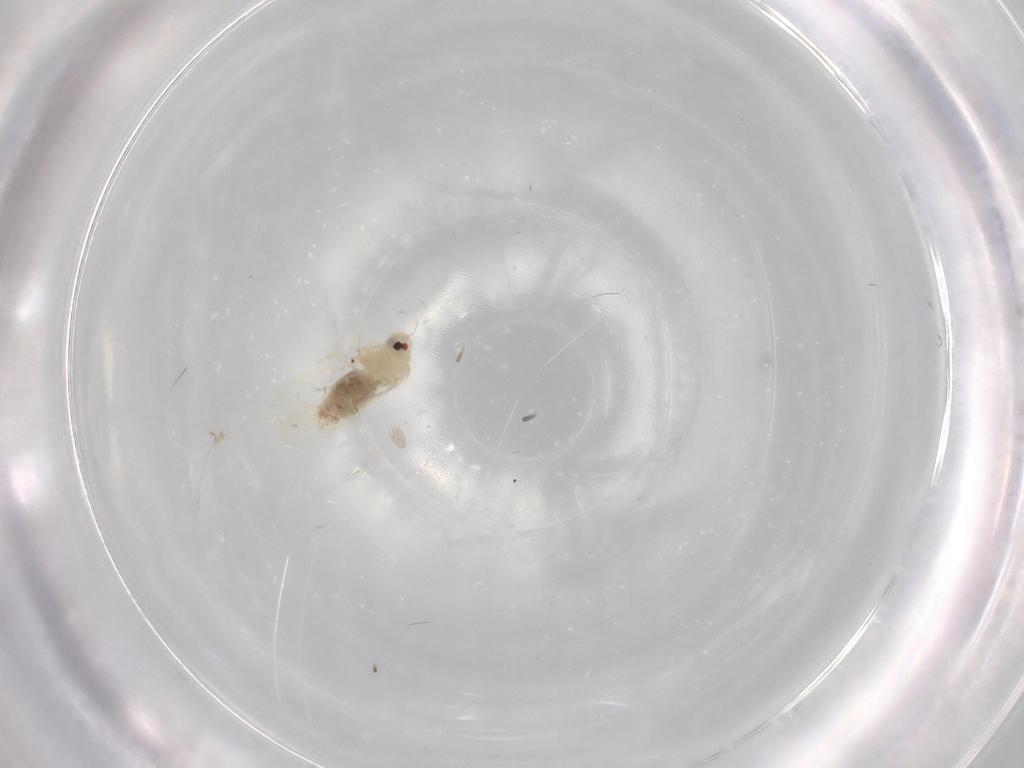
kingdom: Animalia
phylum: Arthropoda
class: Insecta
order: Hemiptera
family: Aleyrodidae
